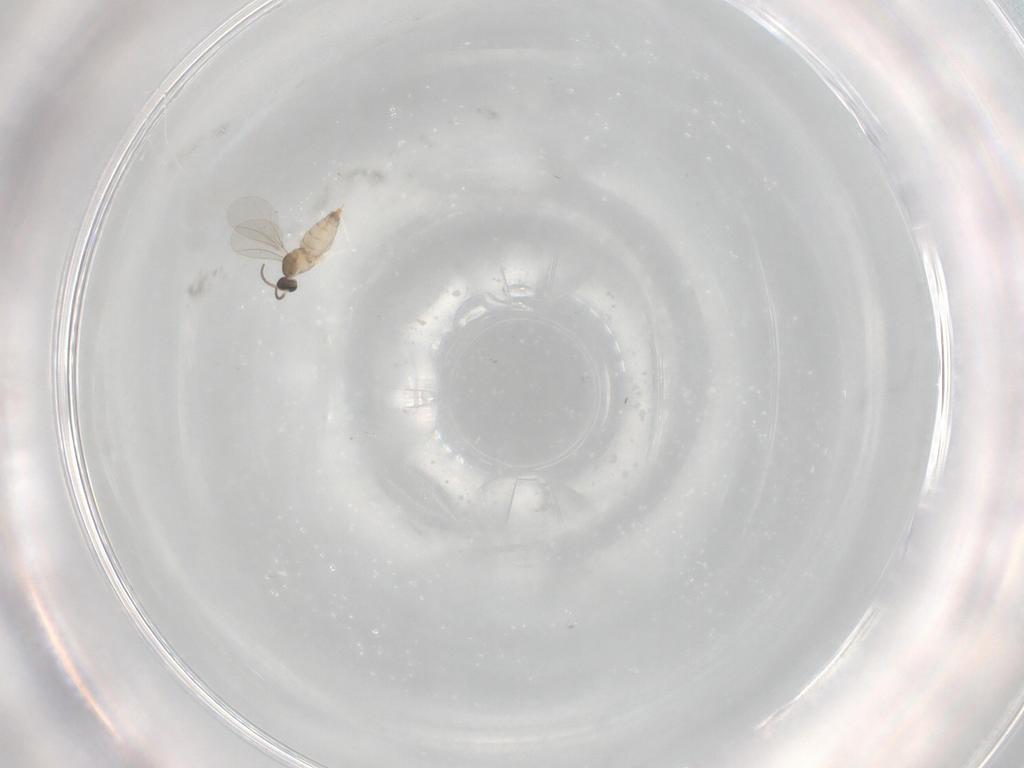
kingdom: Animalia
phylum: Arthropoda
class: Insecta
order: Diptera
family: Cecidomyiidae
